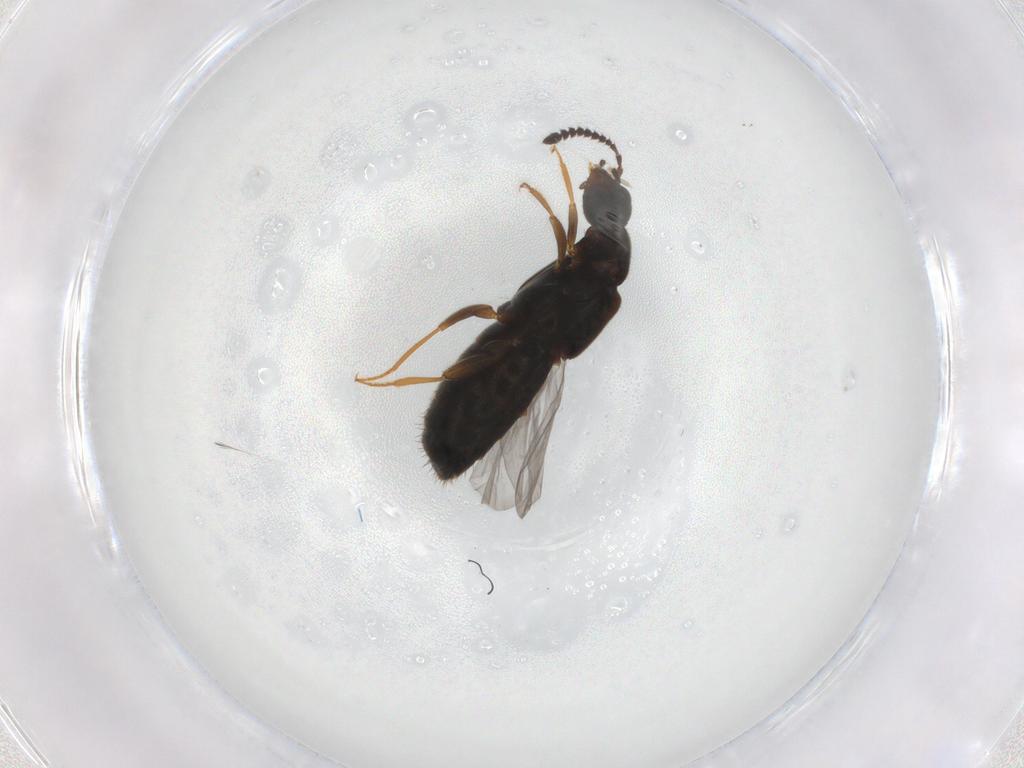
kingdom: Animalia
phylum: Arthropoda
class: Insecta
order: Coleoptera
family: Staphylinidae
